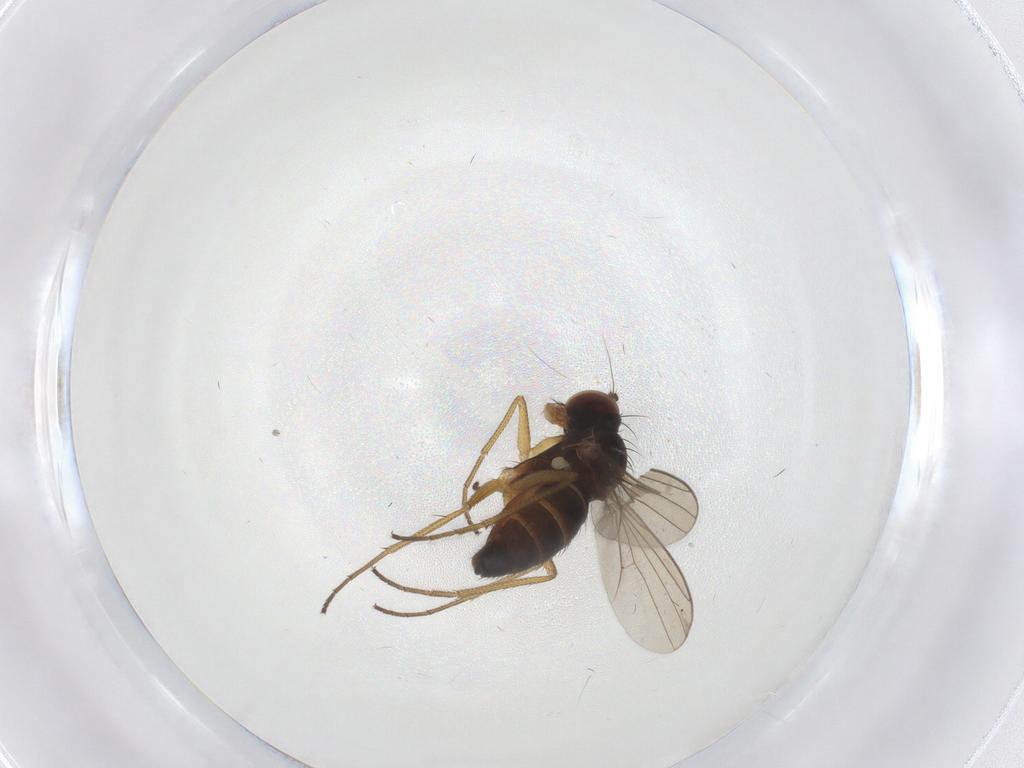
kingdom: Animalia
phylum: Arthropoda
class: Insecta
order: Diptera
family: Dolichopodidae
